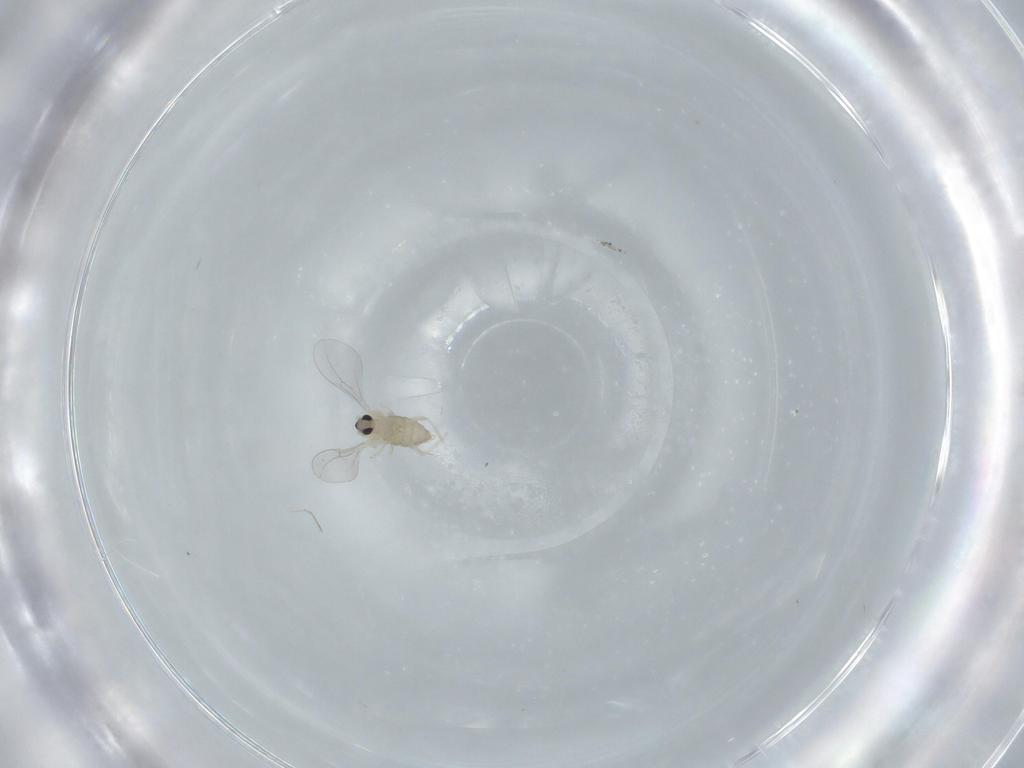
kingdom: Animalia
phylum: Arthropoda
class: Insecta
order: Diptera
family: Cecidomyiidae
